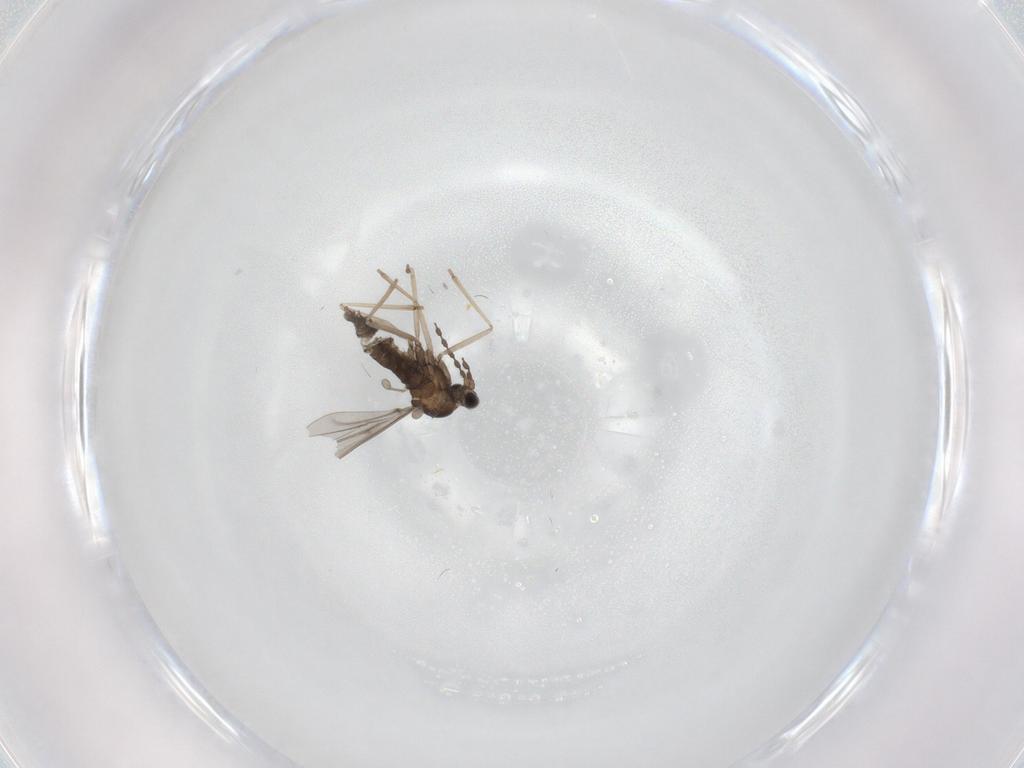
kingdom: Animalia
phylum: Arthropoda
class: Insecta
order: Diptera
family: Cecidomyiidae
